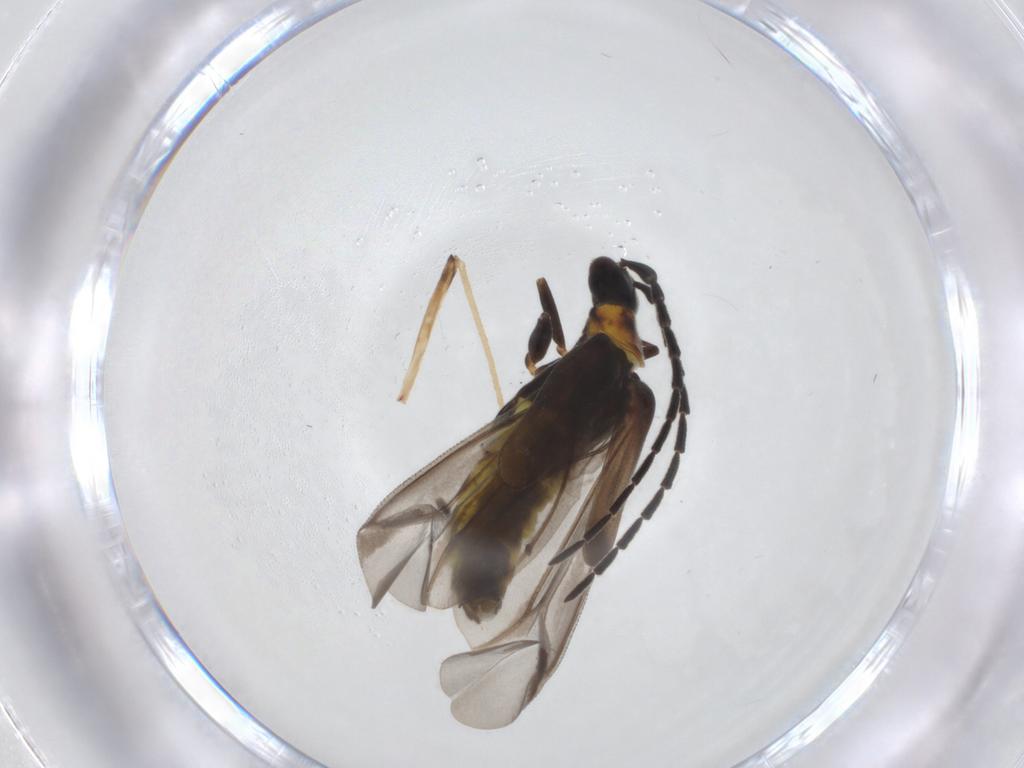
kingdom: Animalia
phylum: Arthropoda
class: Insecta
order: Coleoptera
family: Cantharidae
